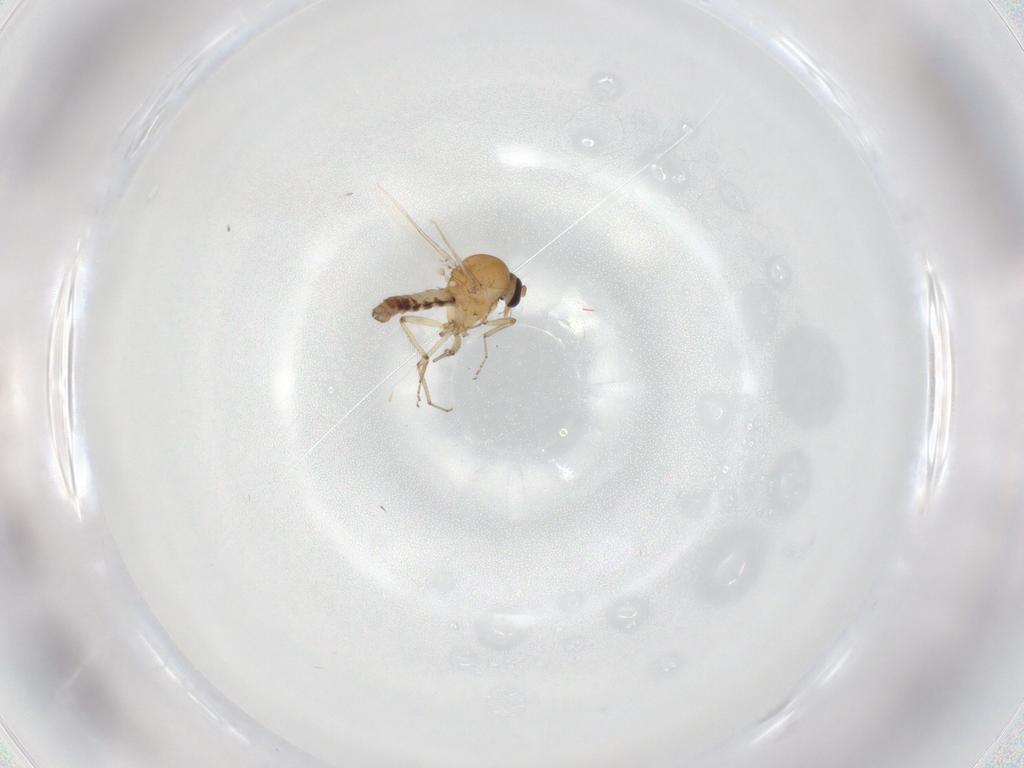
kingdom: Animalia
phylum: Arthropoda
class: Insecta
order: Diptera
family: Ceratopogonidae
